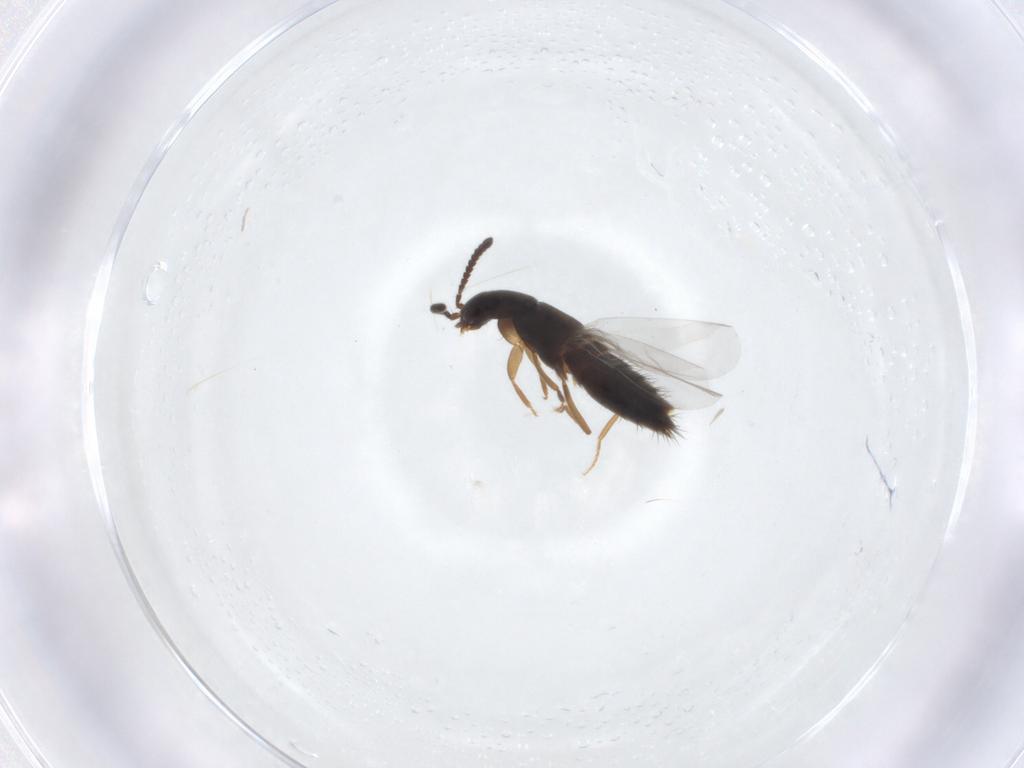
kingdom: Animalia
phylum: Arthropoda
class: Insecta
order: Coleoptera
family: Staphylinidae
